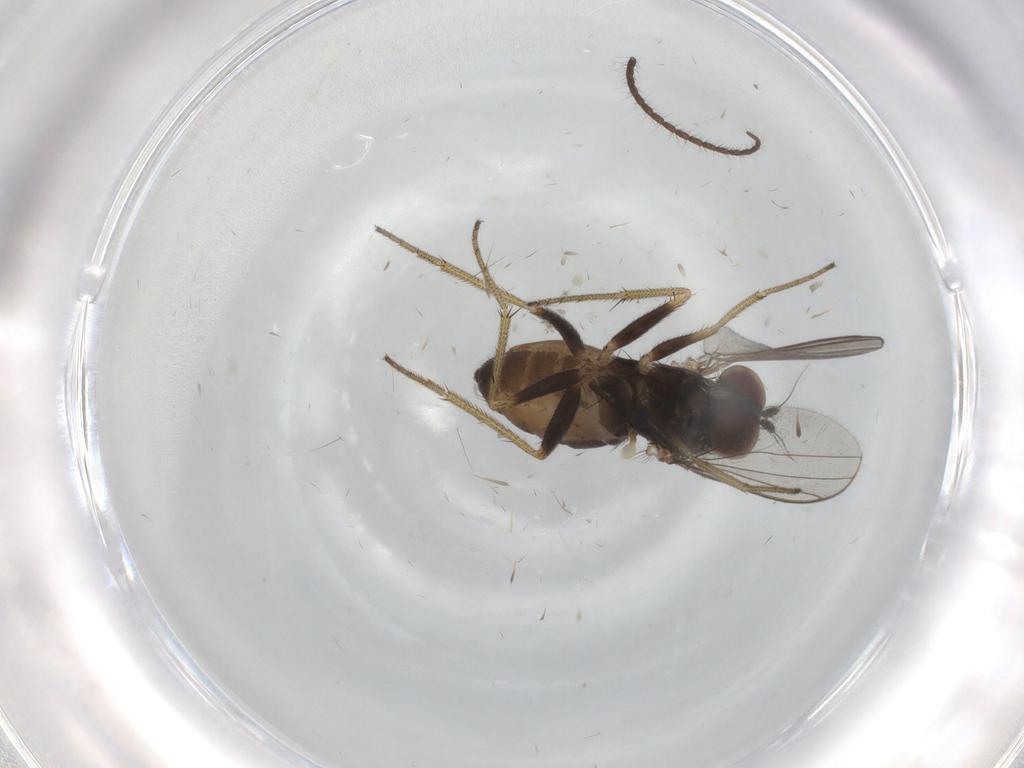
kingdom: Animalia
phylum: Arthropoda
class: Insecta
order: Diptera
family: Dolichopodidae
